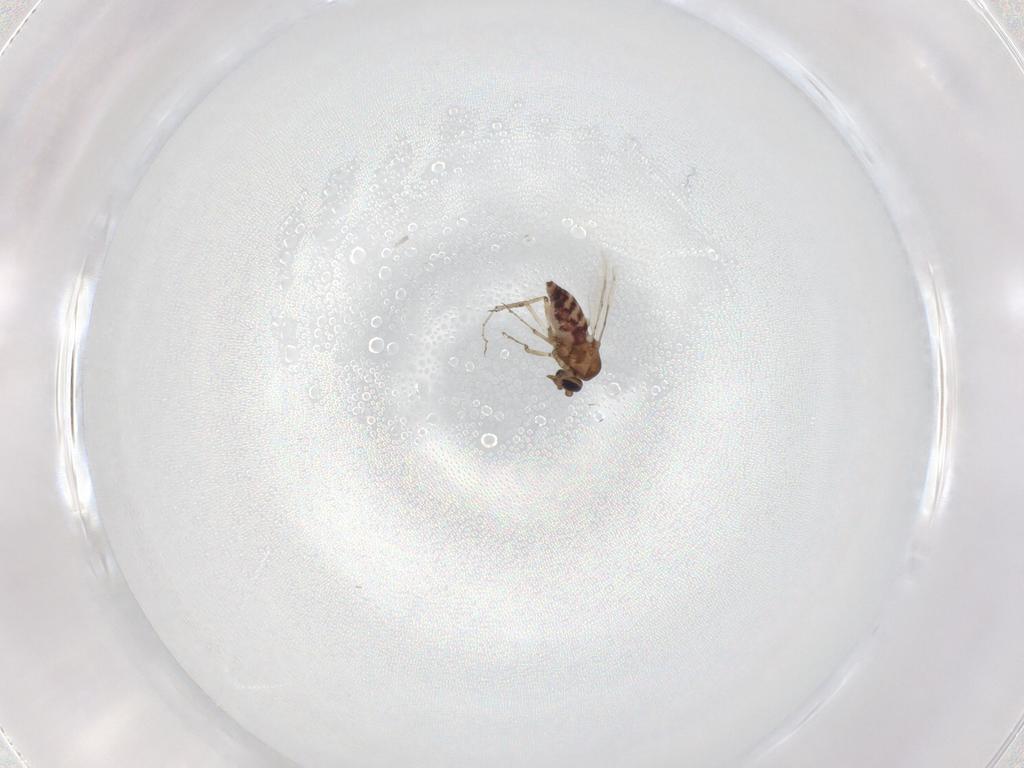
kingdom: Animalia
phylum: Arthropoda
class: Insecta
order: Diptera
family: Ceratopogonidae
